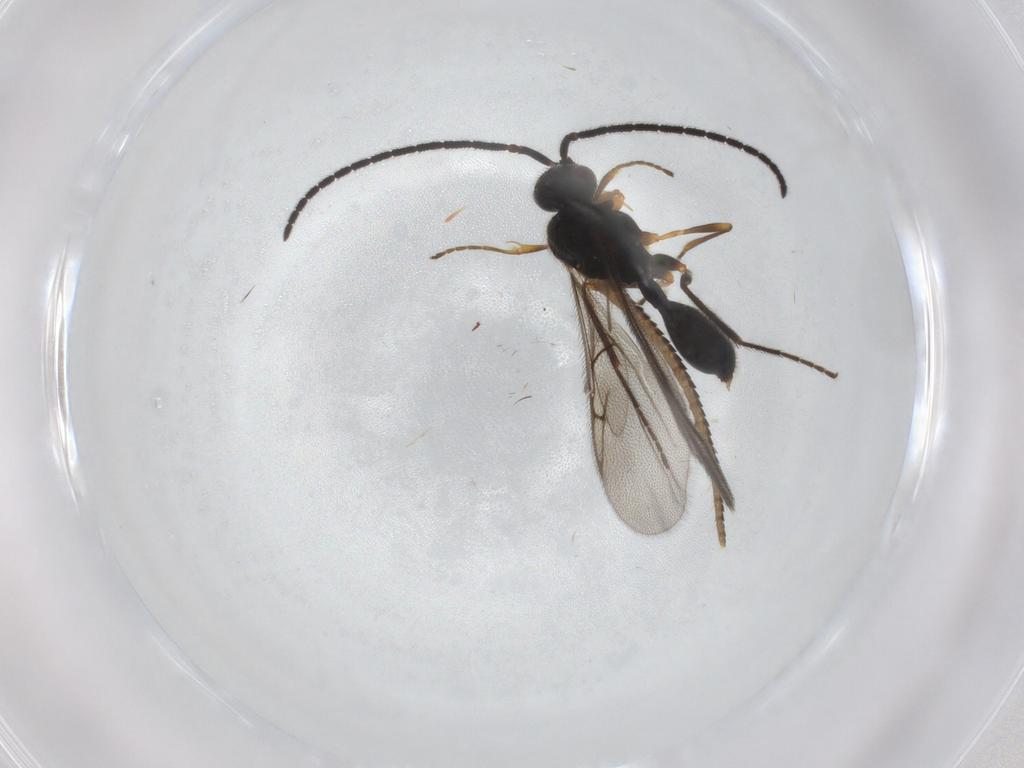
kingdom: Animalia
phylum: Arthropoda
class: Insecta
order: Hymenoptera
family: Diapriidae
